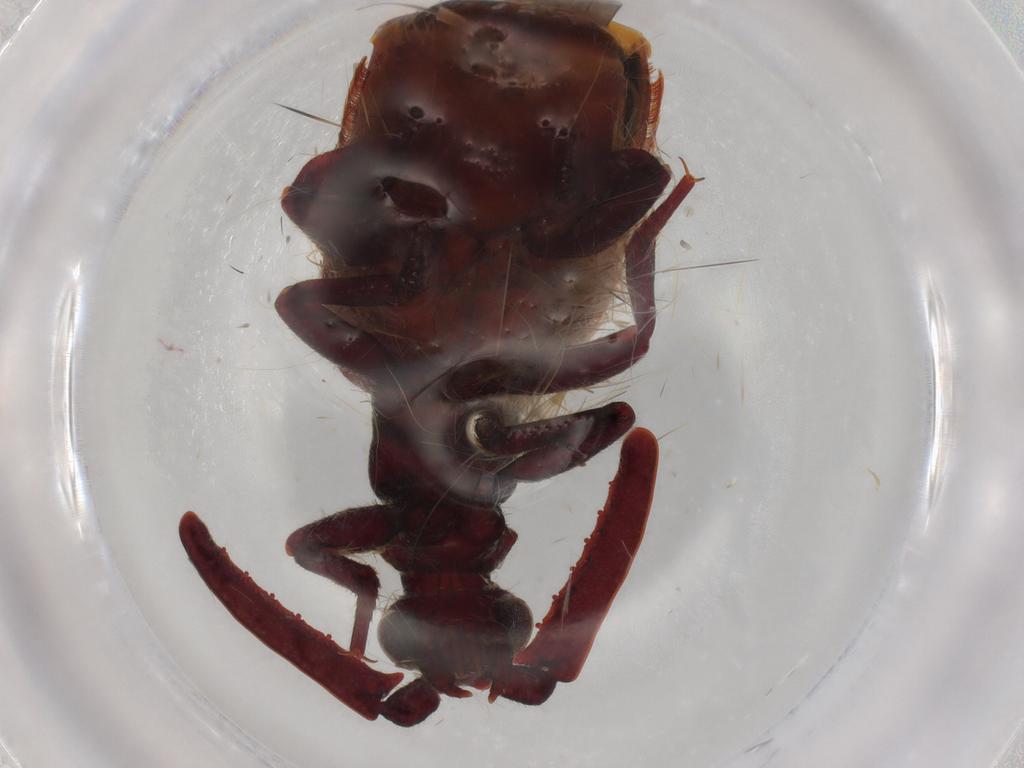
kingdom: Animalia
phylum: Arthropoda
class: Insecta
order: Coleoptera
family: Carabidae
